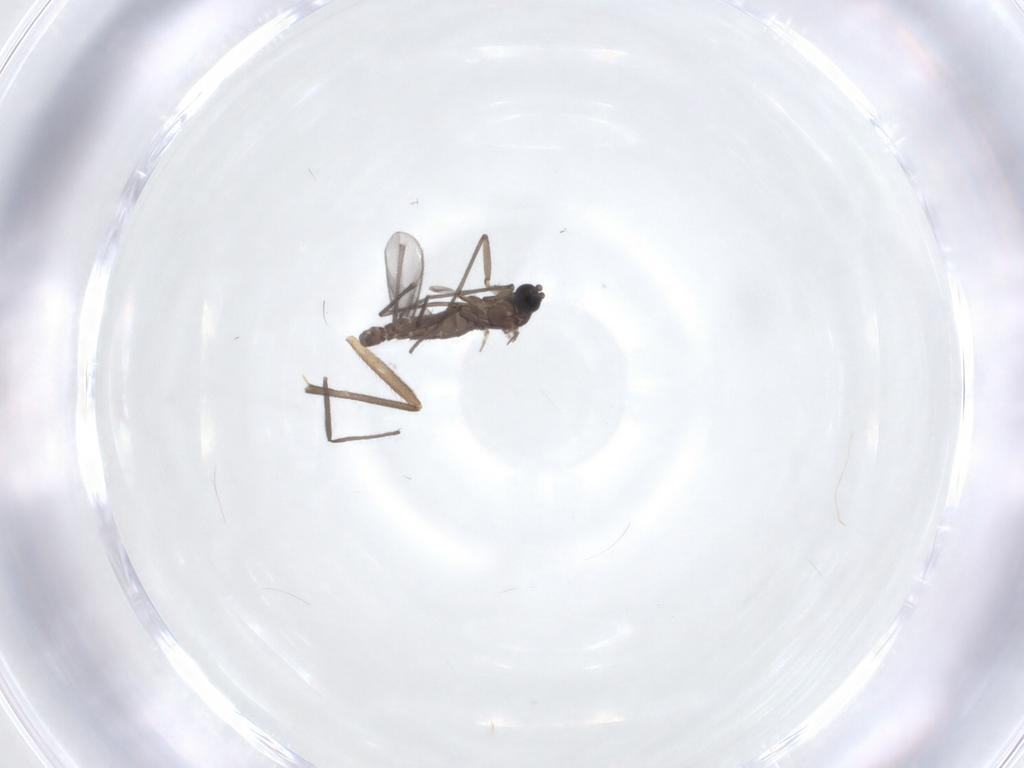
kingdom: Animalia
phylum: Arthropoda
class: Insecta
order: Diptera
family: Sciaridae
